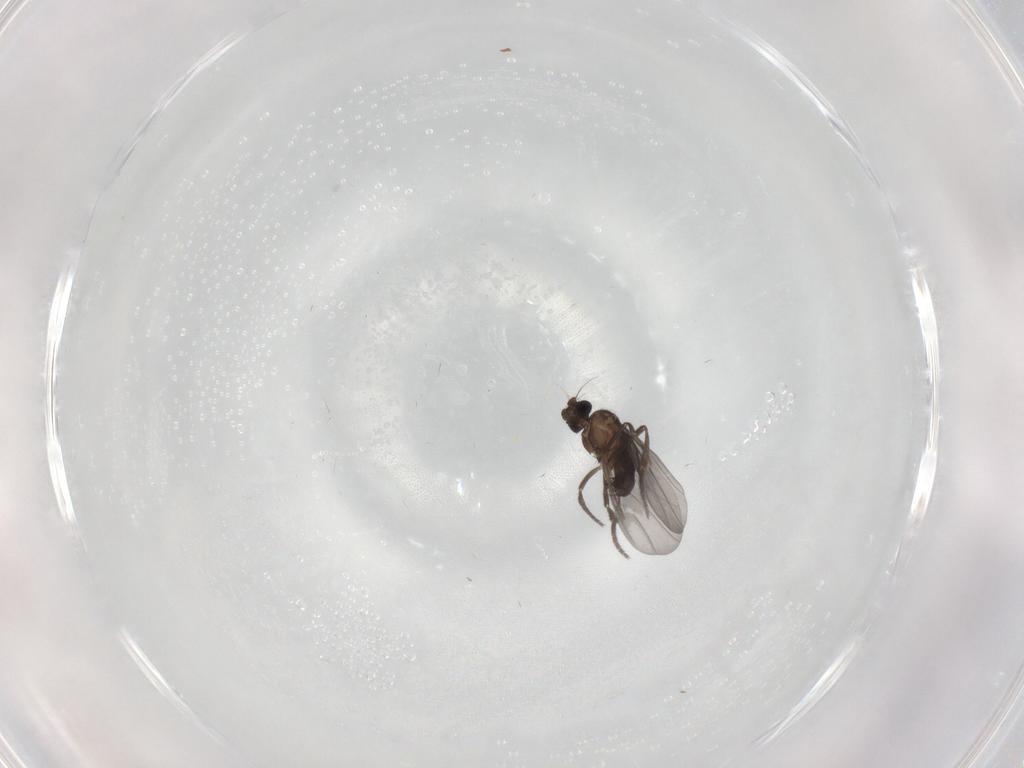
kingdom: Animalia
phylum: Arthropoda
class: Insecta
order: Diptera
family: Phoridae
